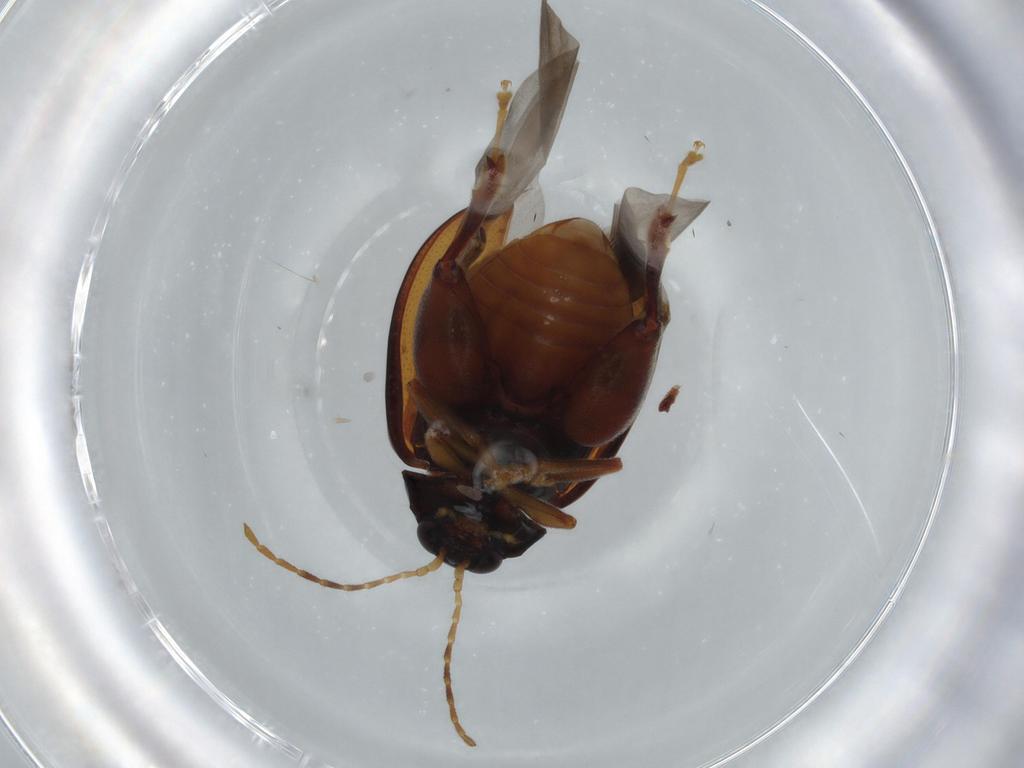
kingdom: Animalia
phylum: Arthropoda
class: Insecta
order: Coleoptera
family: Chrysomelidae
